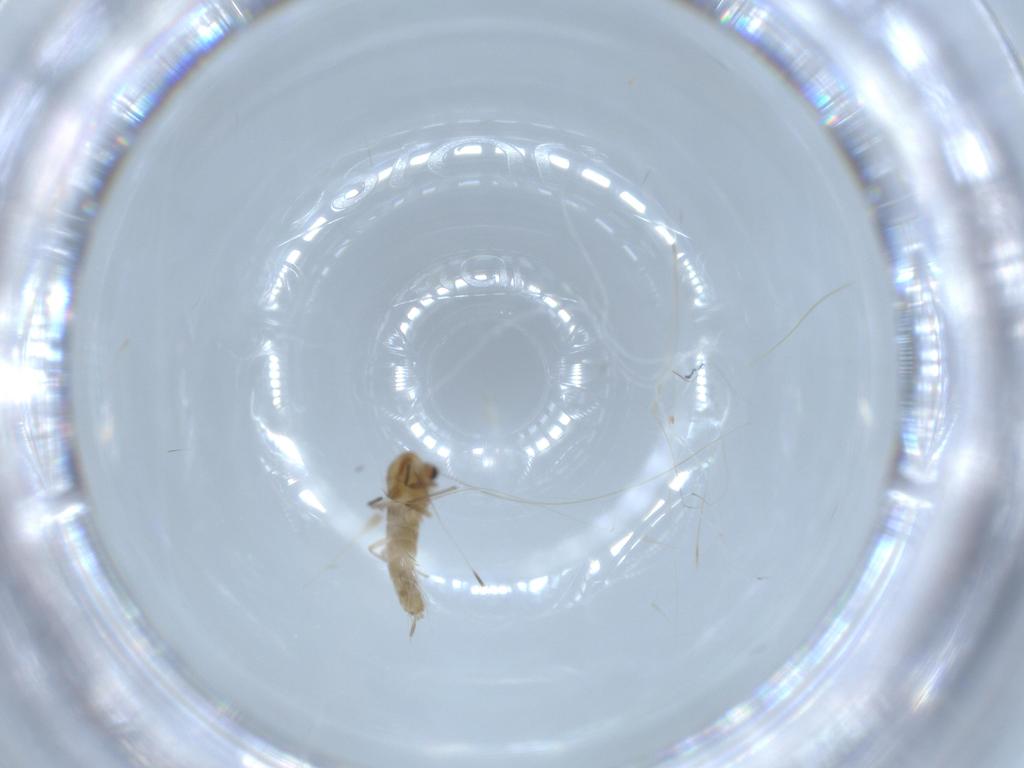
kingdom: Animalia
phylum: Arthropoda
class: Insecta
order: Diptera
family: Chironomidae
